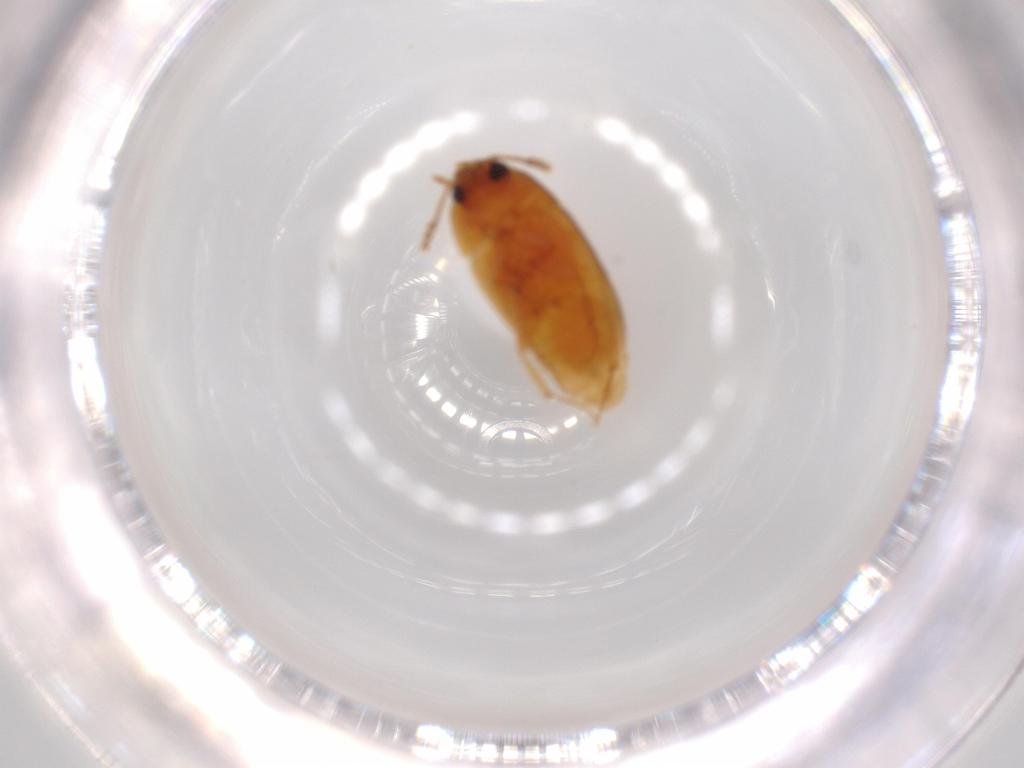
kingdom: Animalia
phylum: Arthropoda
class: Insecta
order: Coleoptera
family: Mycetophagidae
